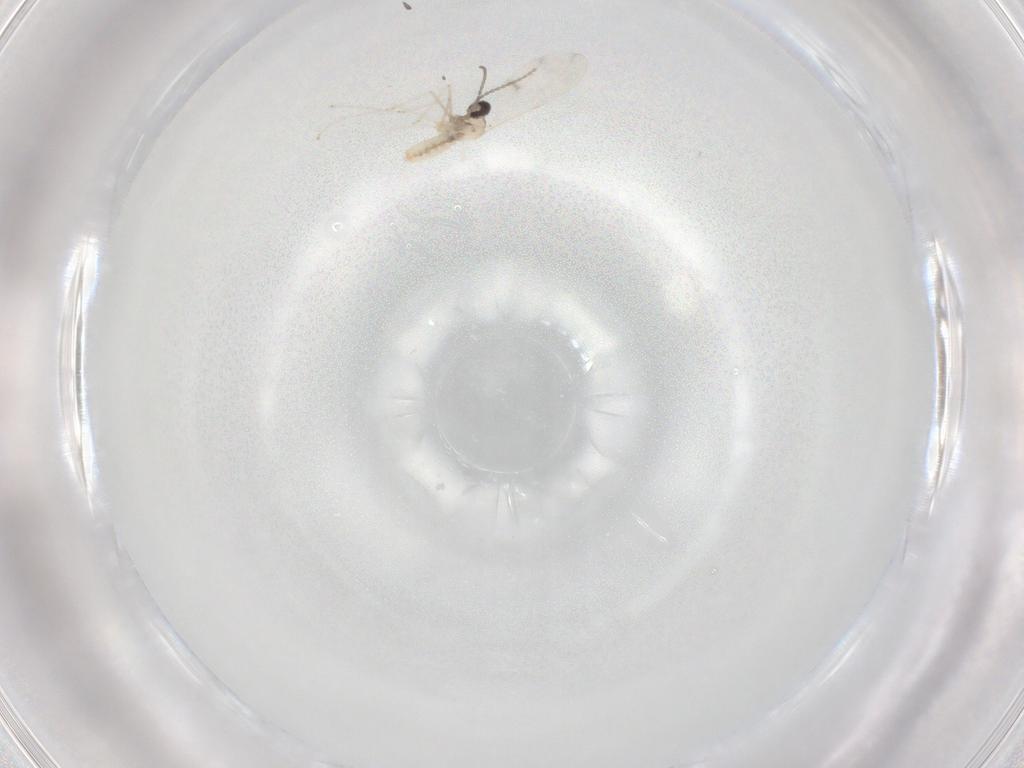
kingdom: Animalia
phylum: Arthropoda
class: Insecta
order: Diptera
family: Cecidomyiidae
